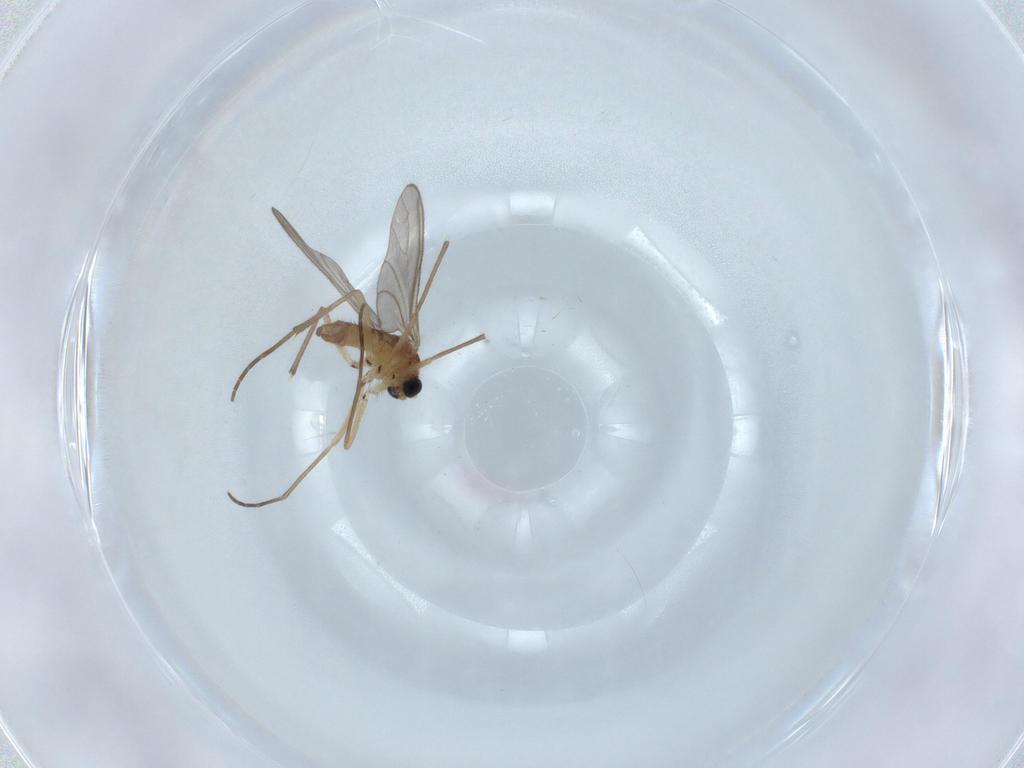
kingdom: Animalia
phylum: Arthropoda
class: Insecta
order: Diptera
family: Sciaridae
